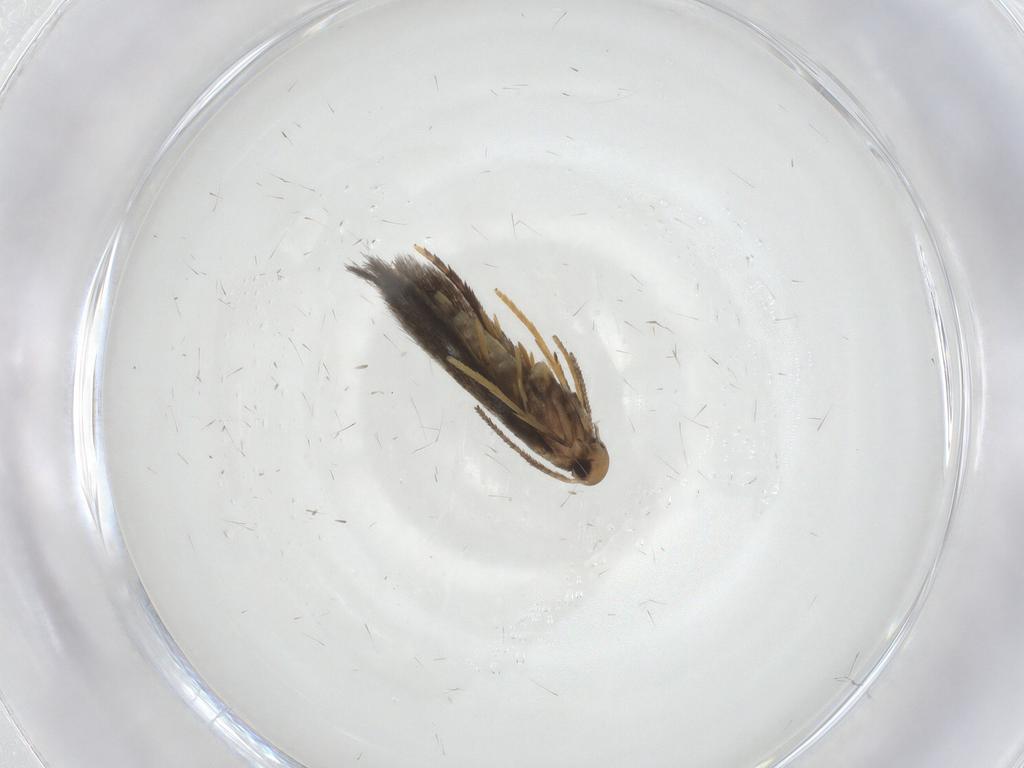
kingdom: Animalia
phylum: Arthropoda
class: Insecta
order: Lepidoptera
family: Heliozelidae
